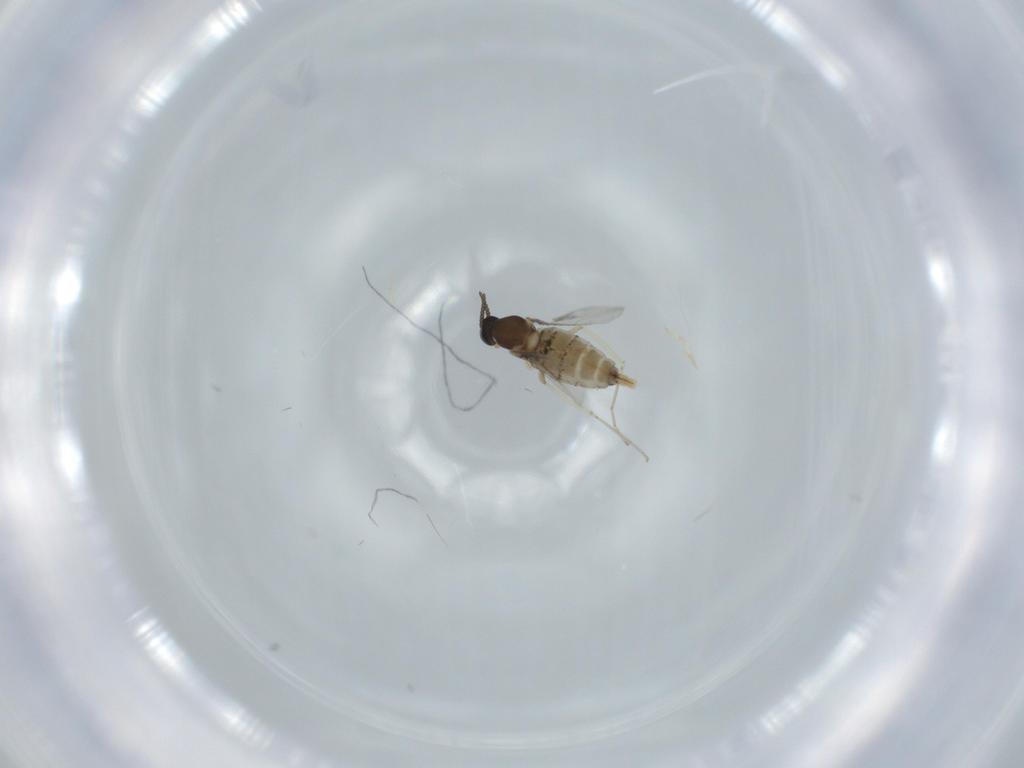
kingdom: Animalia
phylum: Arthropoda
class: Insecta
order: Diptera
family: Cecidomyiidae
